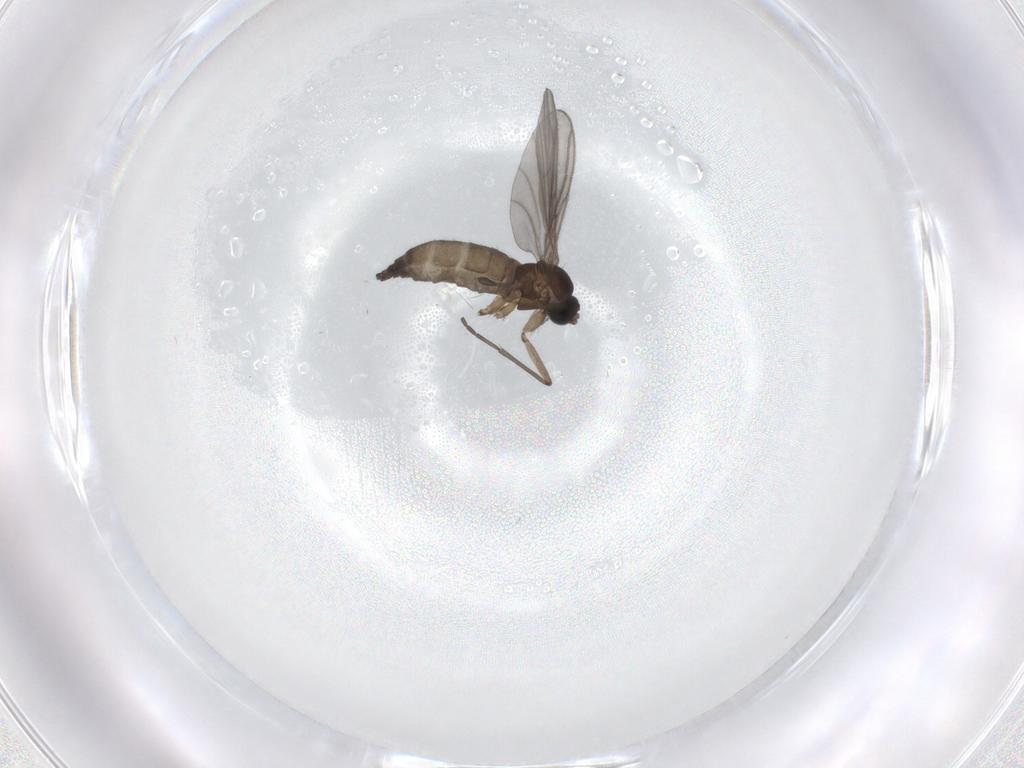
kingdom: Animalia
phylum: Arthropoda
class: Insecta
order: Diptera
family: Sciaridae
